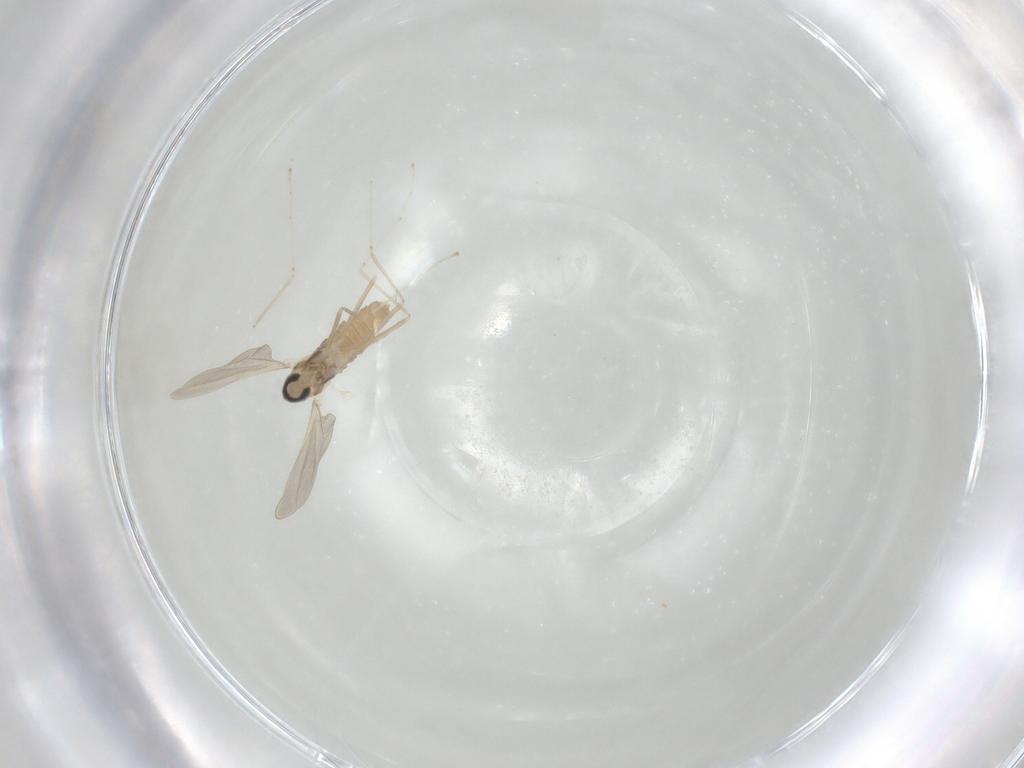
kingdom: Animalia
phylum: Arthropoda
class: Insecta
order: Diptera
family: Cecidomyiidae
